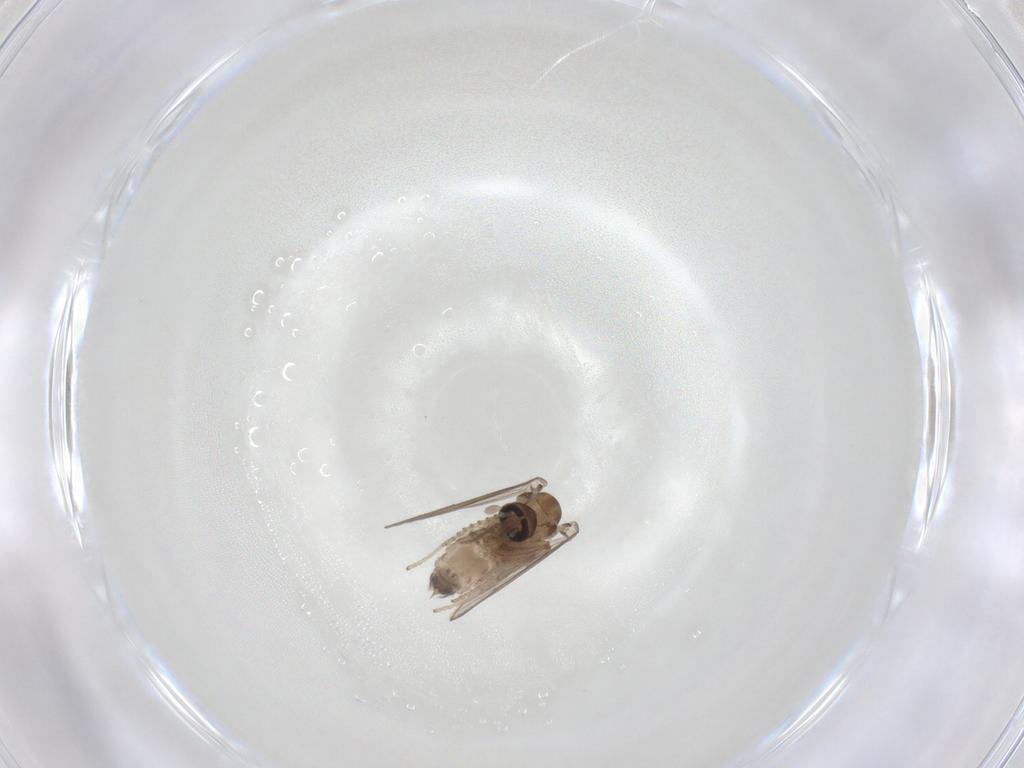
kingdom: Animalia
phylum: Arthropoda
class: Insecta
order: Diptera
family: Psychodidae
